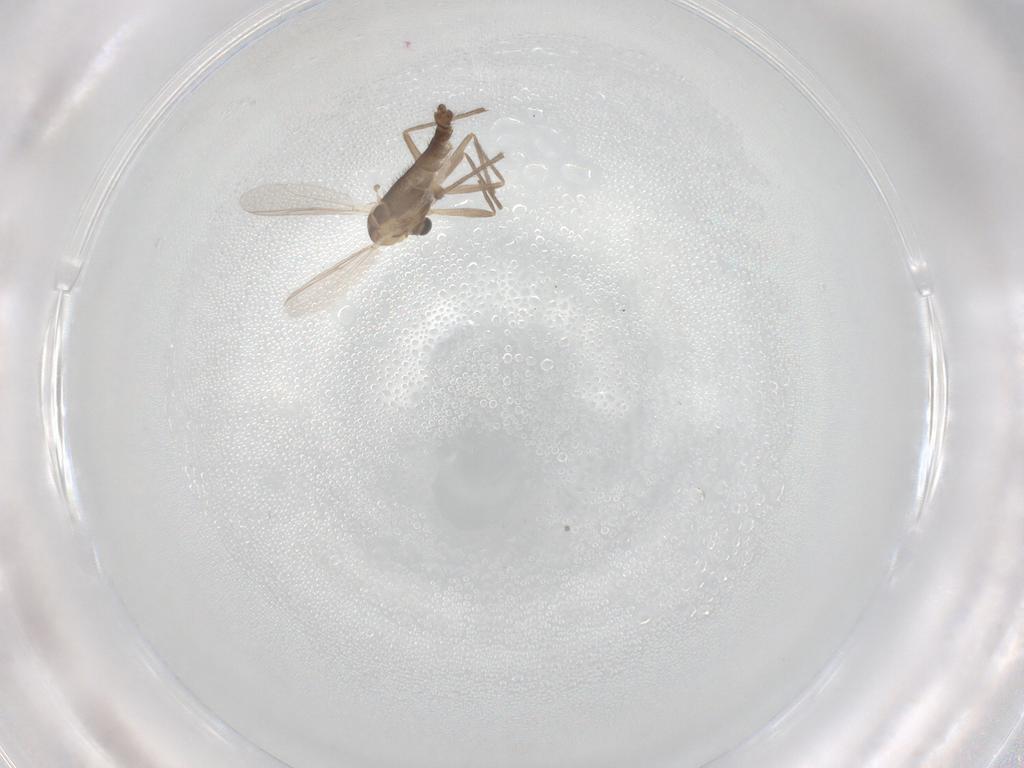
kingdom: Animalia
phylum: Arthropoda
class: Insecta
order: Diptera
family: Chironomidae
